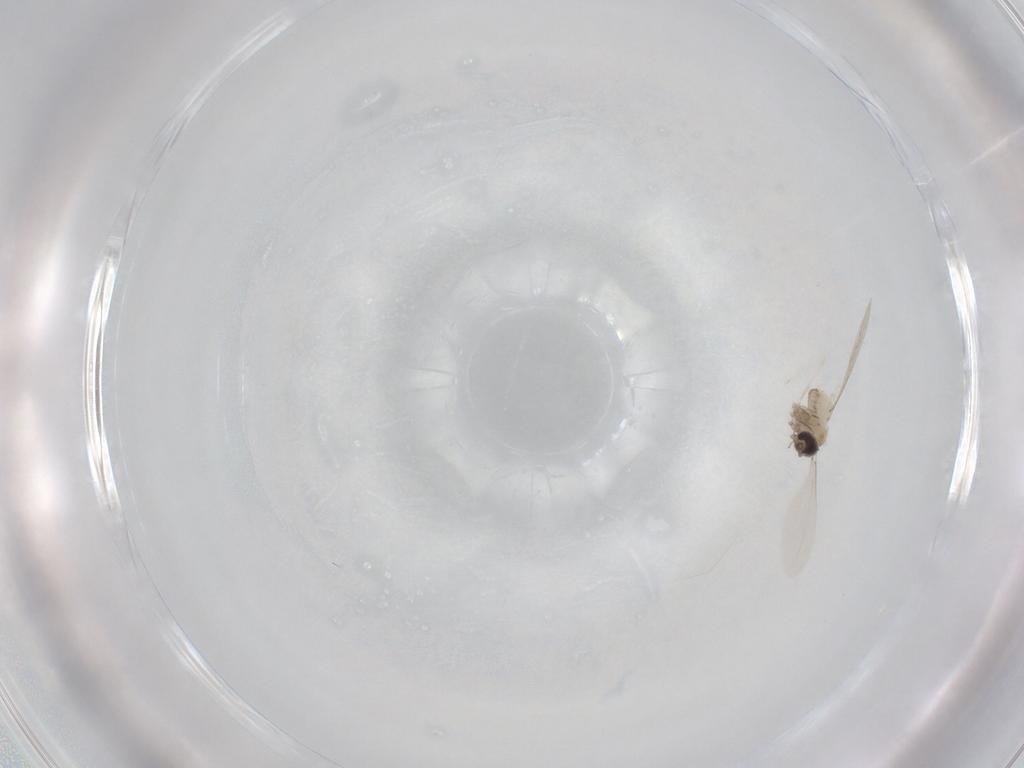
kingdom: Animalia
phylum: Arthropoda
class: Insecta
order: Diptera
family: Cecidomyiidae
